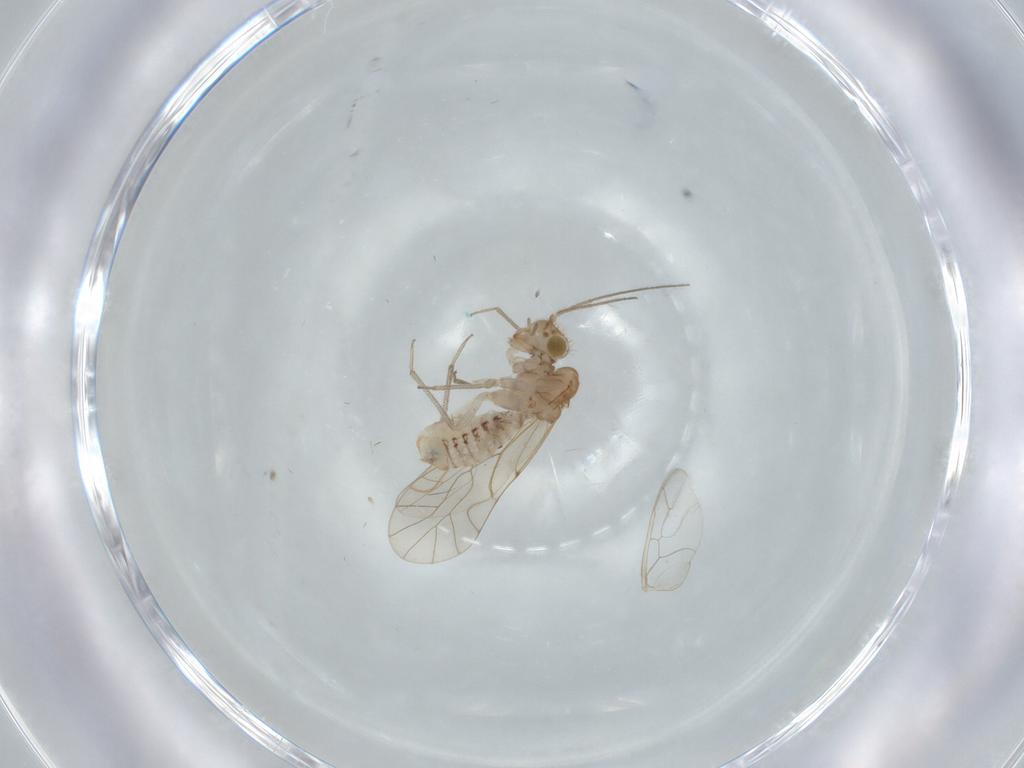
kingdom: Animalia
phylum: Arthropoda
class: Insecta
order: Psocodea
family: Lachesillidae
